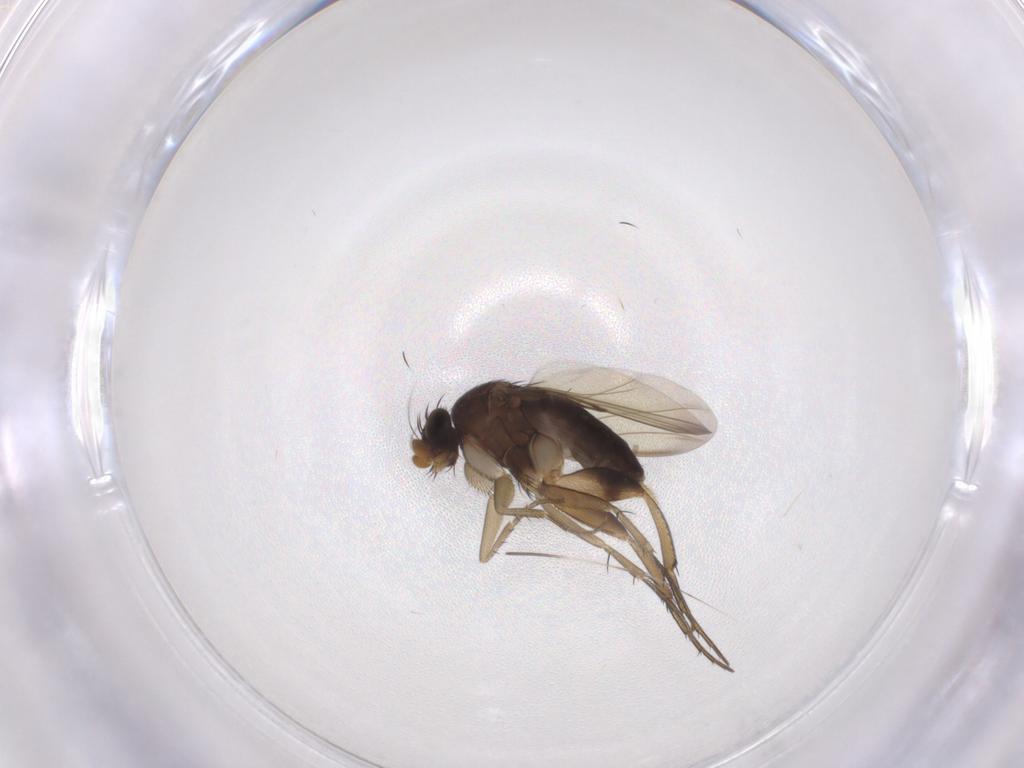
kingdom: Animalia
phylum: Arthropoda
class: Insecta
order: Diptera
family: Phoridae
